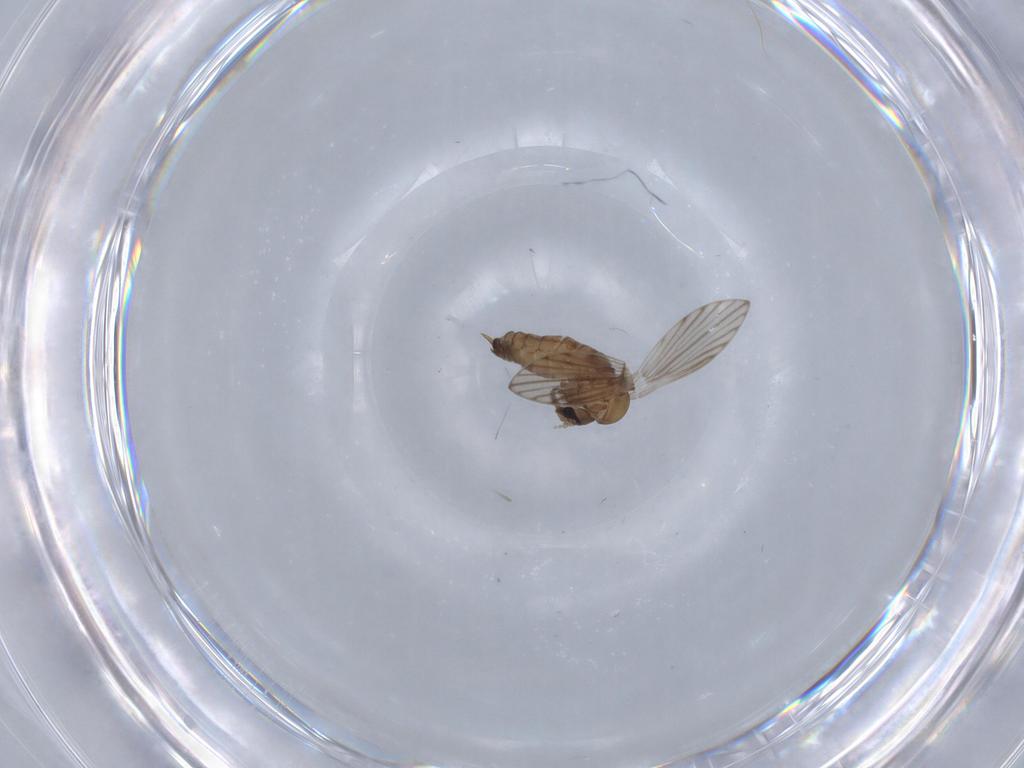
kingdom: Animalia
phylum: Arthropoda
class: Insecta
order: Diptera
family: Psychodidae
